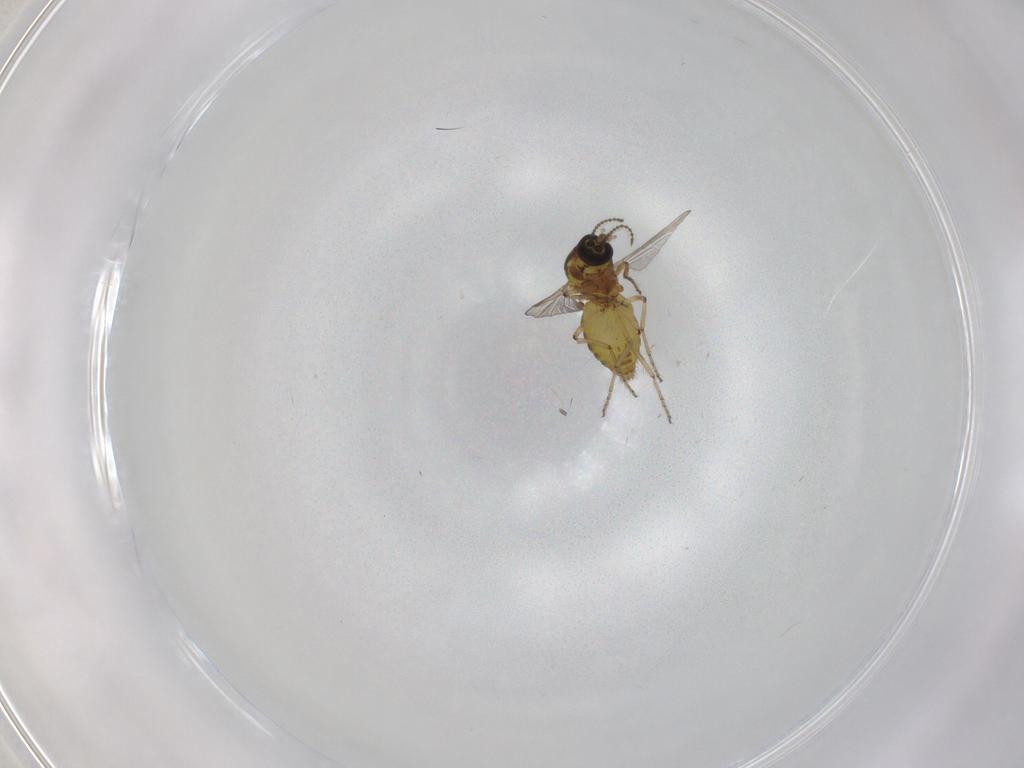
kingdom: Animalia
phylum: Arthropoda
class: Insecta
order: Diptera
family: Ceratopogonidae
